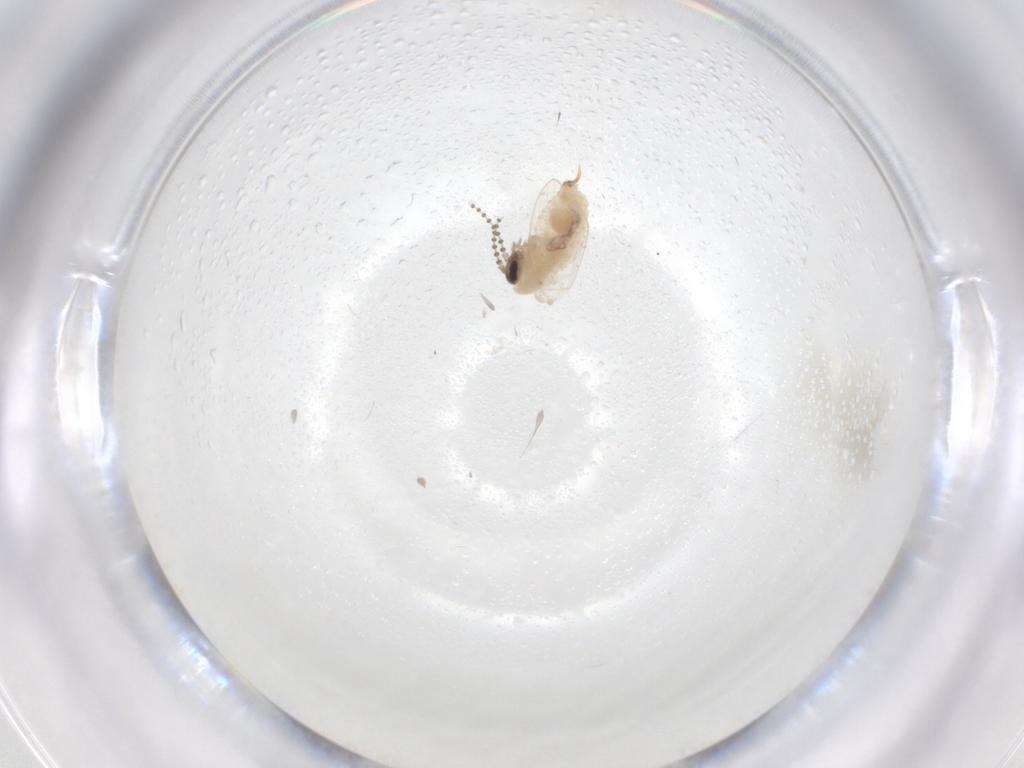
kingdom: Animalia
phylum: Arthropoda
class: Insecta
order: Diptera
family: Psychodidae
